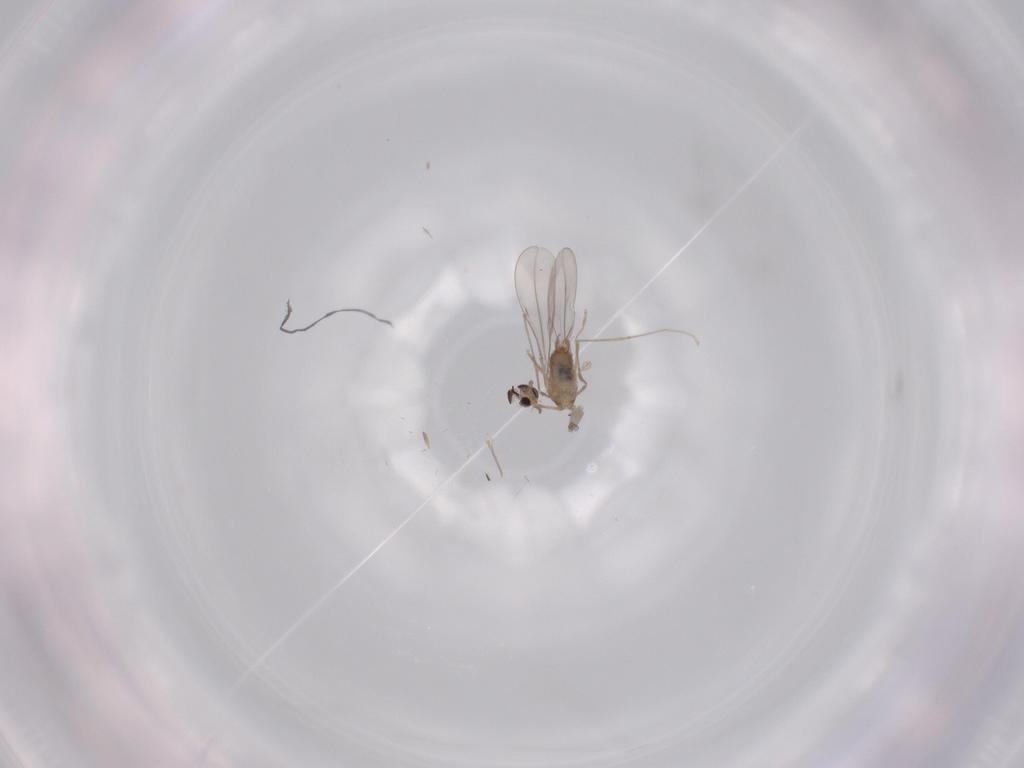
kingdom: Animalia
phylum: Arthropoda
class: Insecta
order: Diptera
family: Cecidomyiidae
